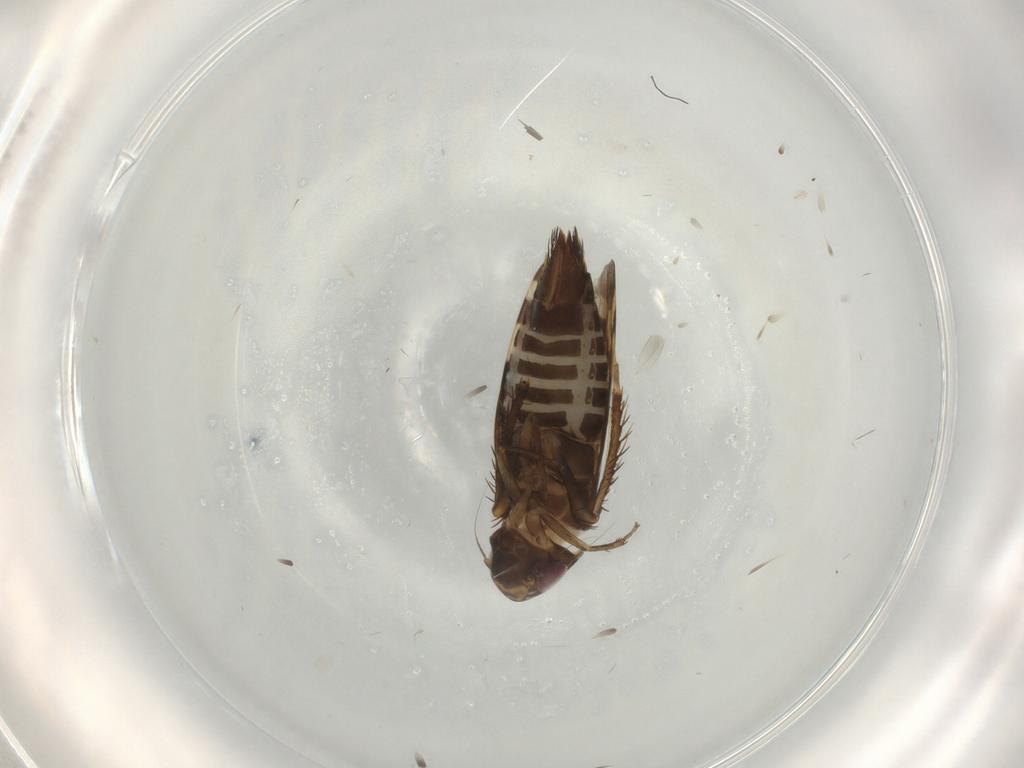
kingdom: Animalia
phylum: Arthropoda
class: Insecta
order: Hemiptera
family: Cicadellidae
